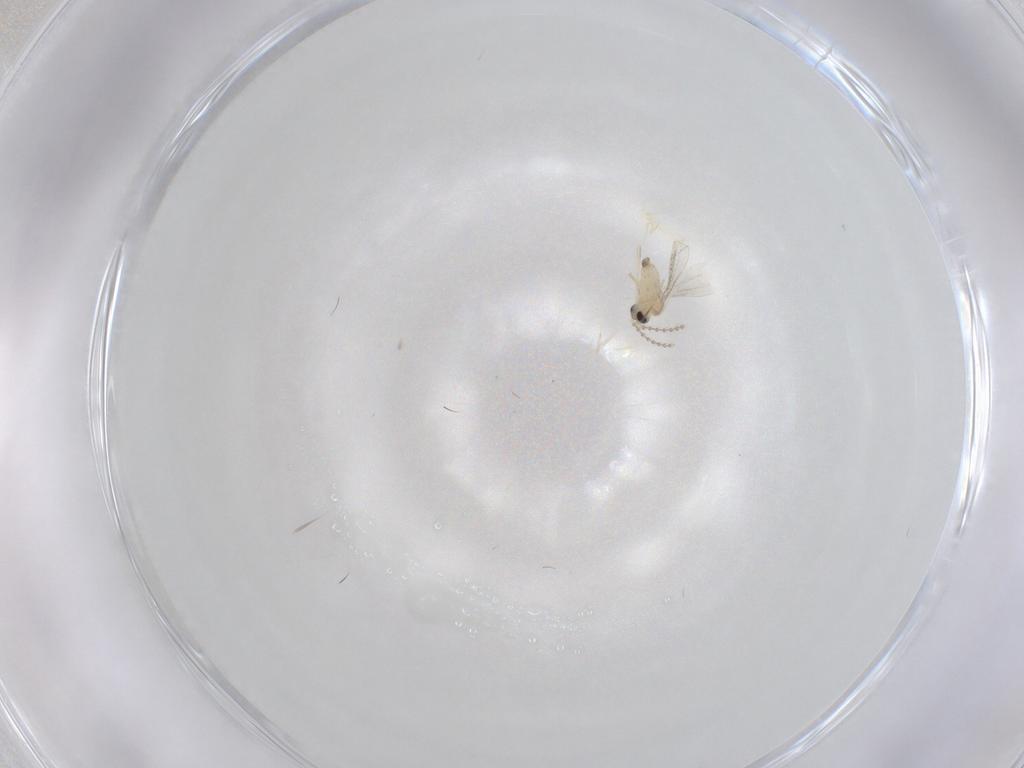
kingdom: Animalia
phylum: Arthropoda
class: Insecta
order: Diptera
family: Cecidomyiidae
